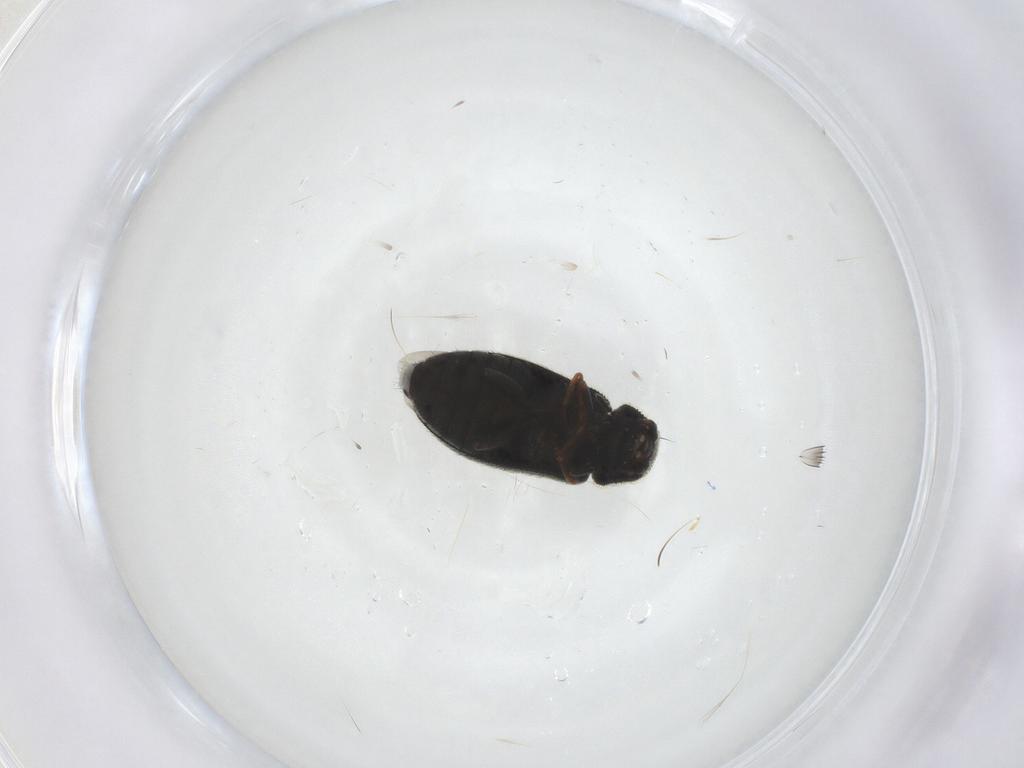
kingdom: Animalia
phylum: Arthropoda
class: Insecta
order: Coleoptera
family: Melyridae
